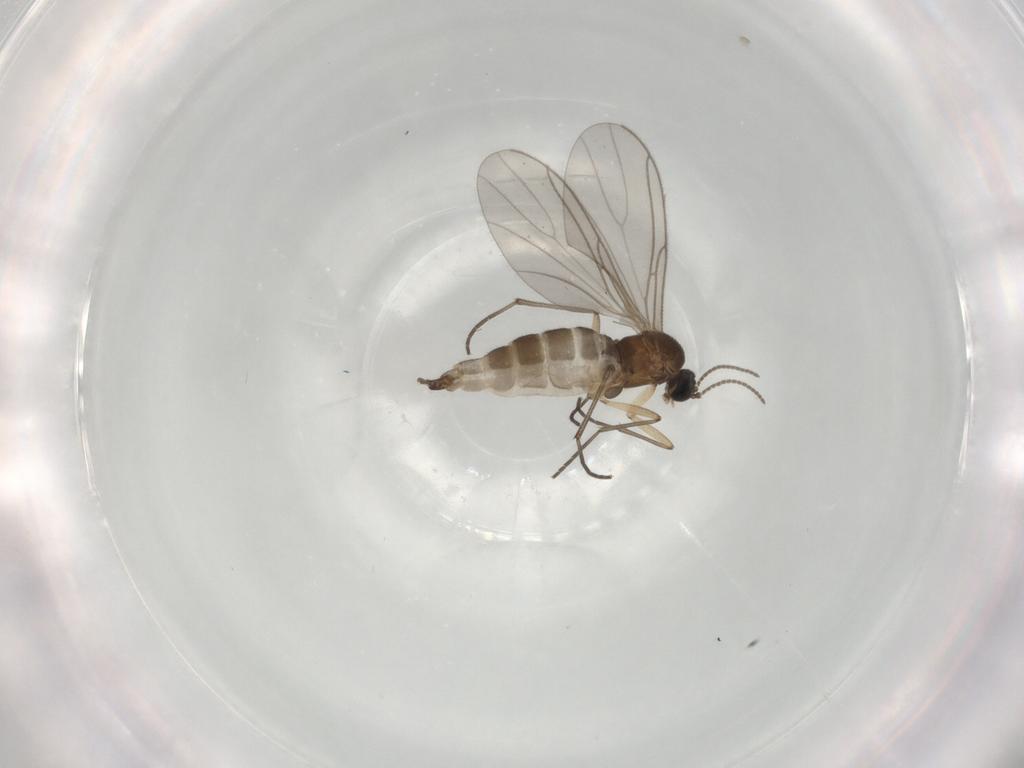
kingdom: Animalia
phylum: Arthropoda
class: Insecta
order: Diptera
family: Sciaridae
